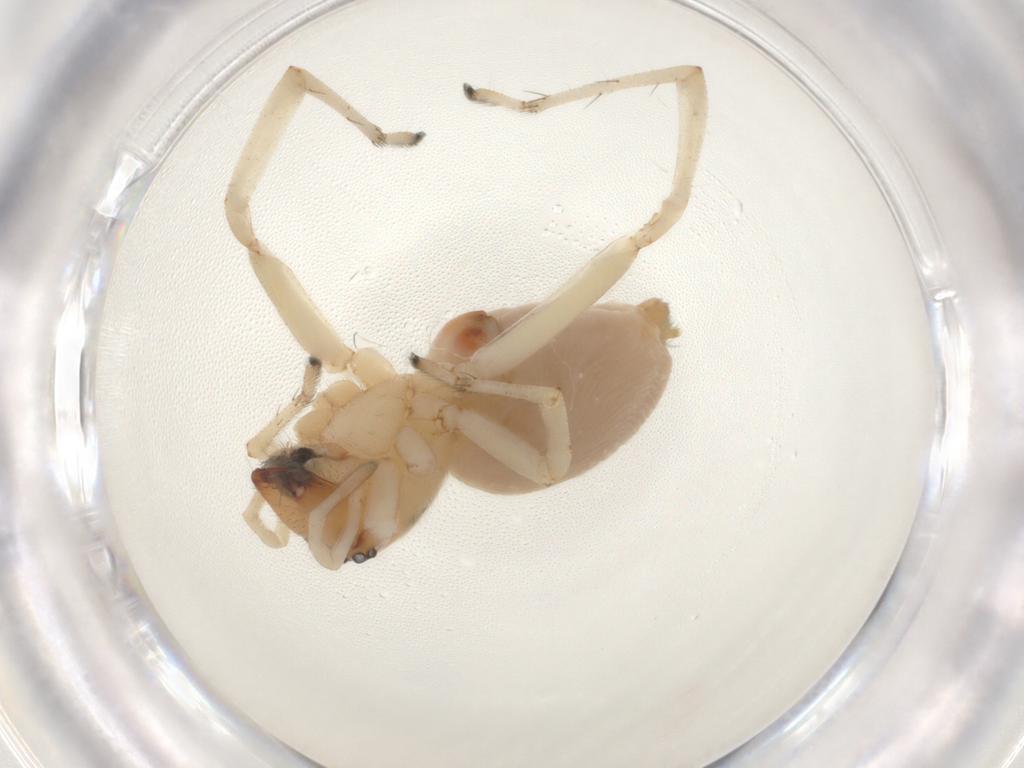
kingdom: Animalia
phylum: Arthropoda
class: Insecta
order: Diptera
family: Cecidomyiidae
